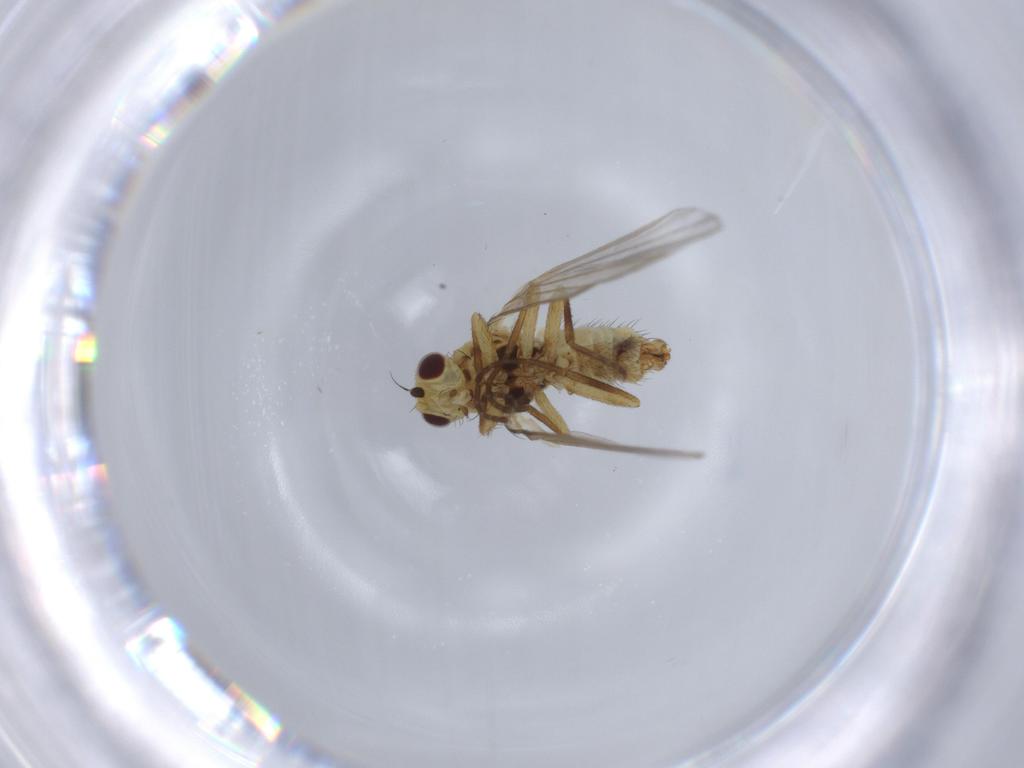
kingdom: Animalia
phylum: Arthropoda
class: Insecta
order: Diptera
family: Agromyzidae
